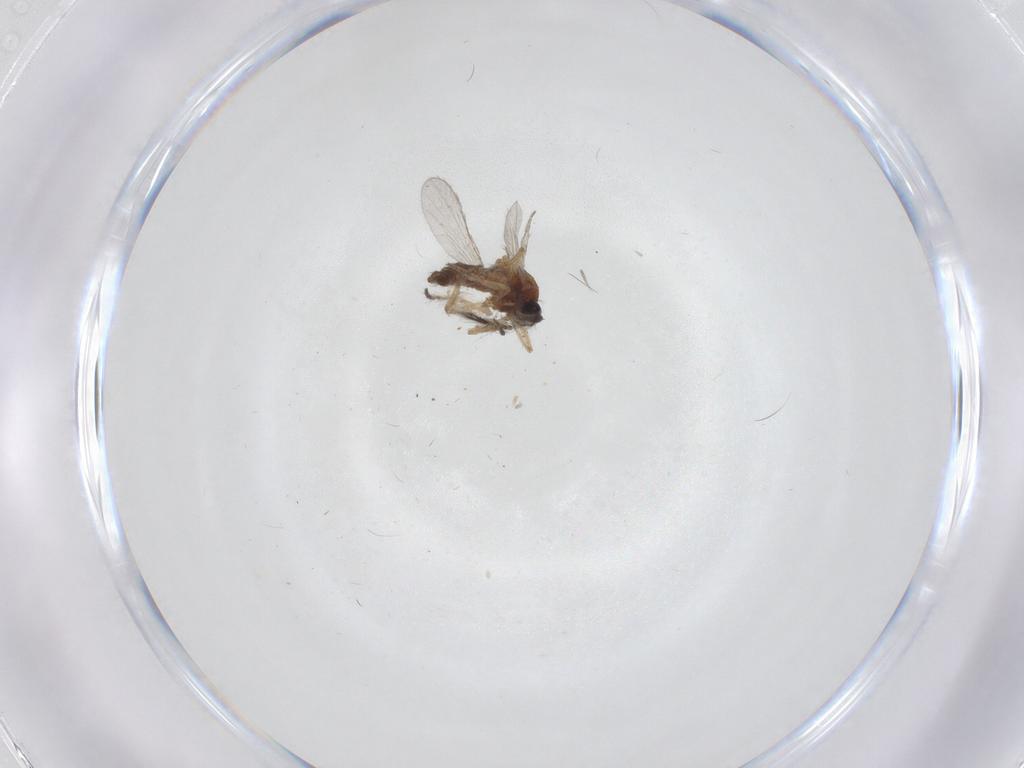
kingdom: Animalia
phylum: Arthropoda
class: Insecta
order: Diptera
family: Ceratopogonidae
